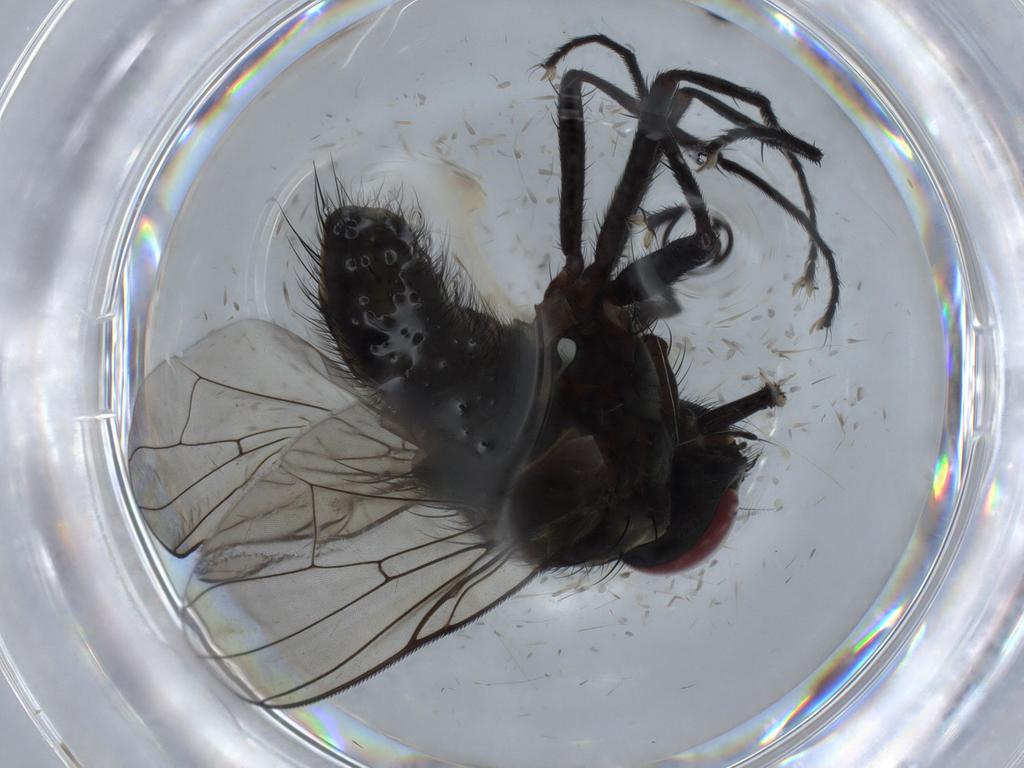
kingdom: Animalia
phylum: Arthropoda
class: Insecta
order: Diptera
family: Muscidae
